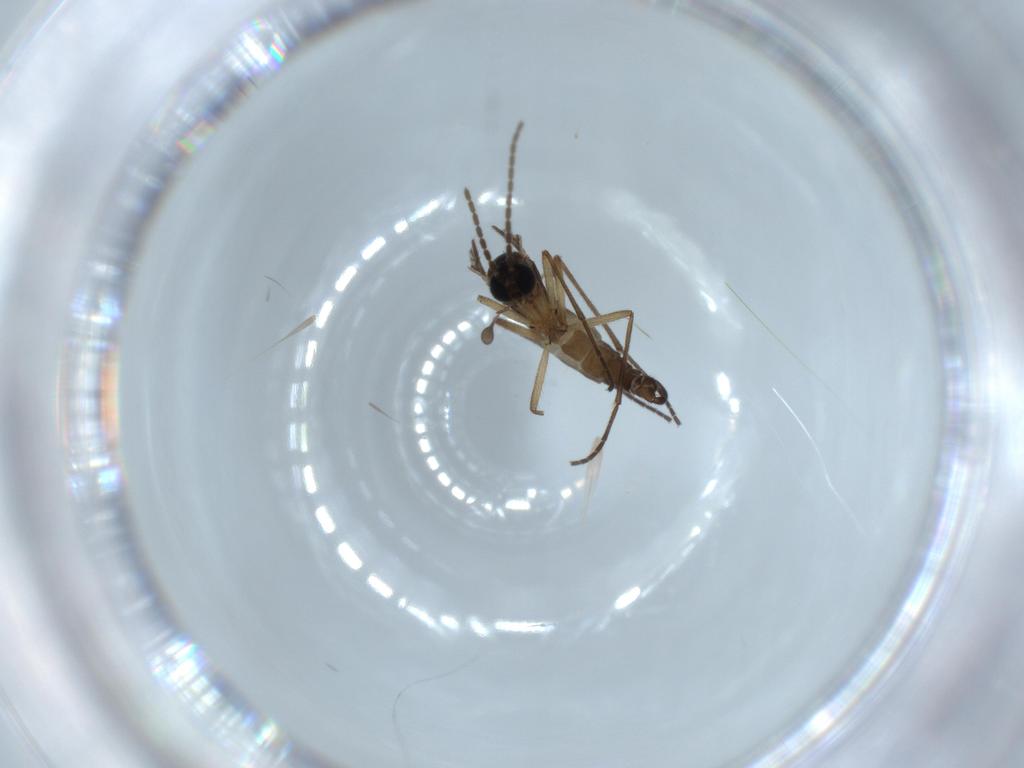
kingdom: Animalia
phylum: Arthropoda
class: Insecta
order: Diptera
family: Sciaridae
